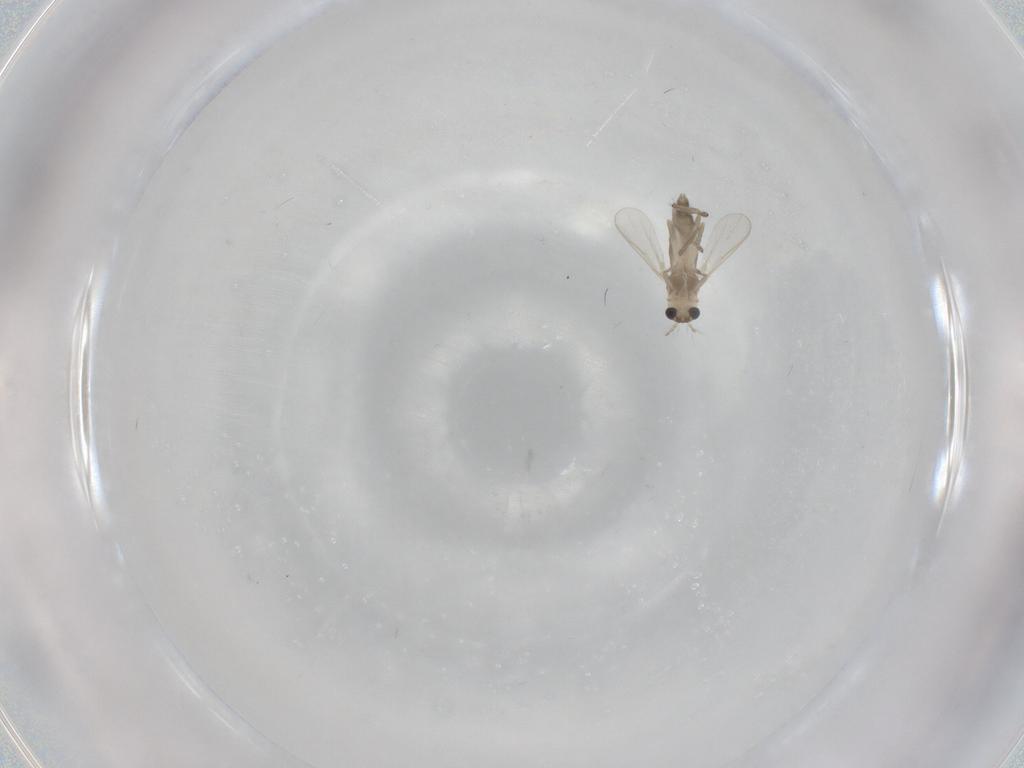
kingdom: Animalia
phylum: Arthropoda
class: Insecta
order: Diptera
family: Chironomidae
